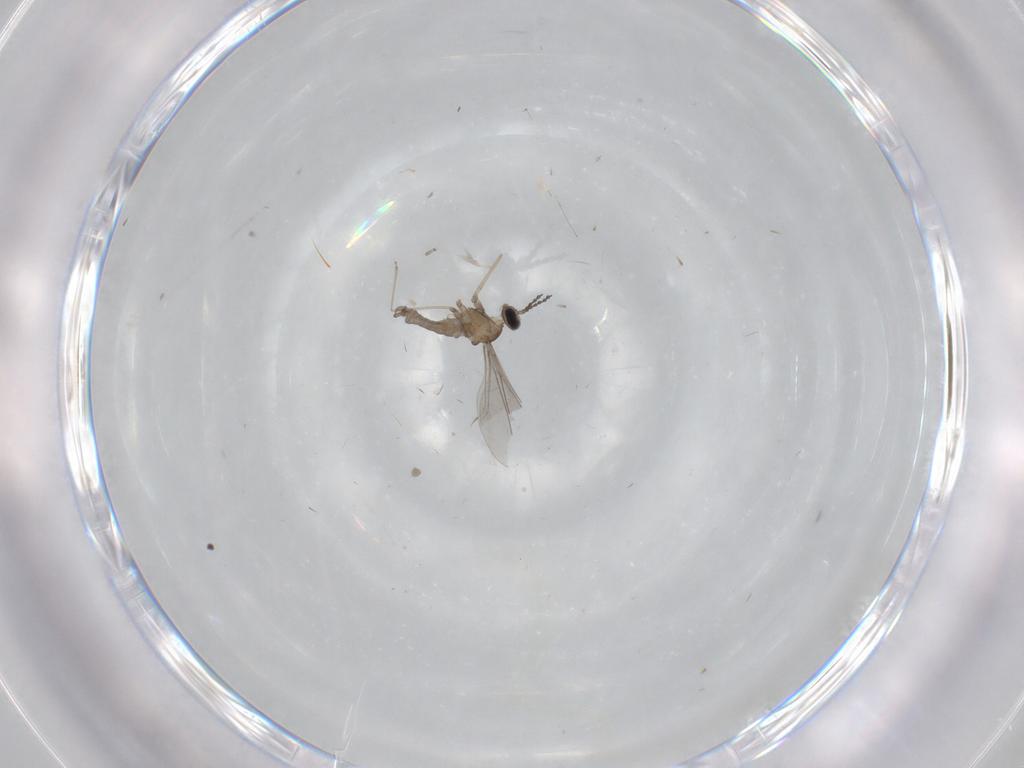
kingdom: Animalia
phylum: Arthropoda
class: Insecta
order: Diptera
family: Cecidomyiidae
